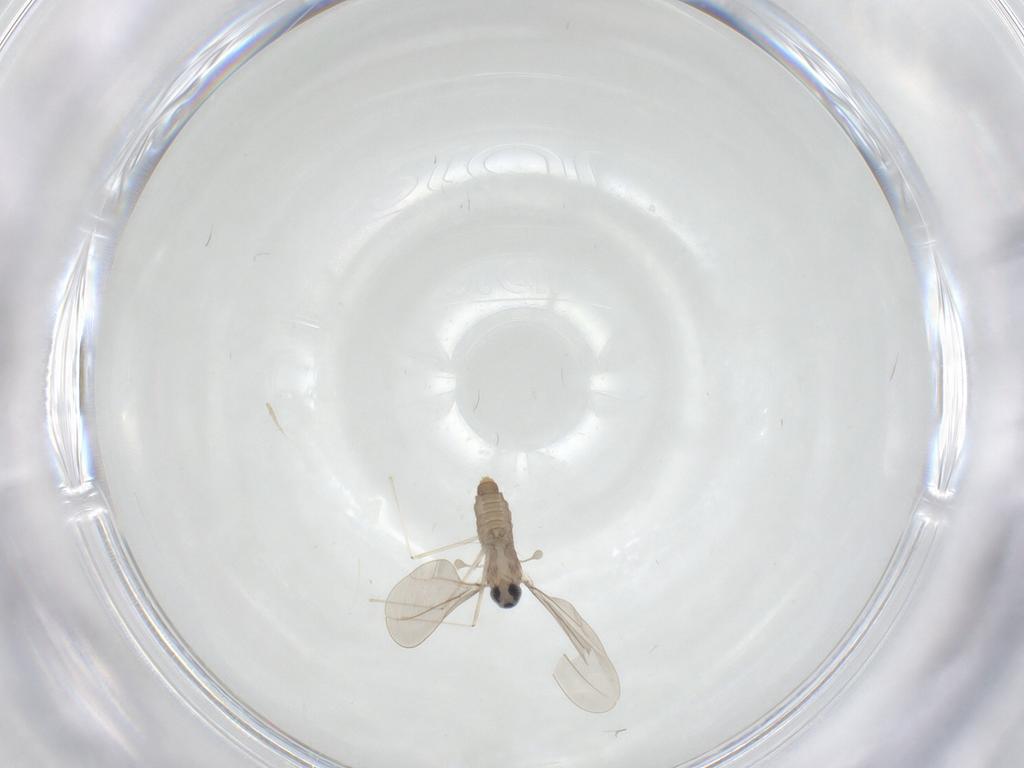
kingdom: Animalia
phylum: Arthropoda
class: Insecta
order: Diptera
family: Cecidomyiidae
